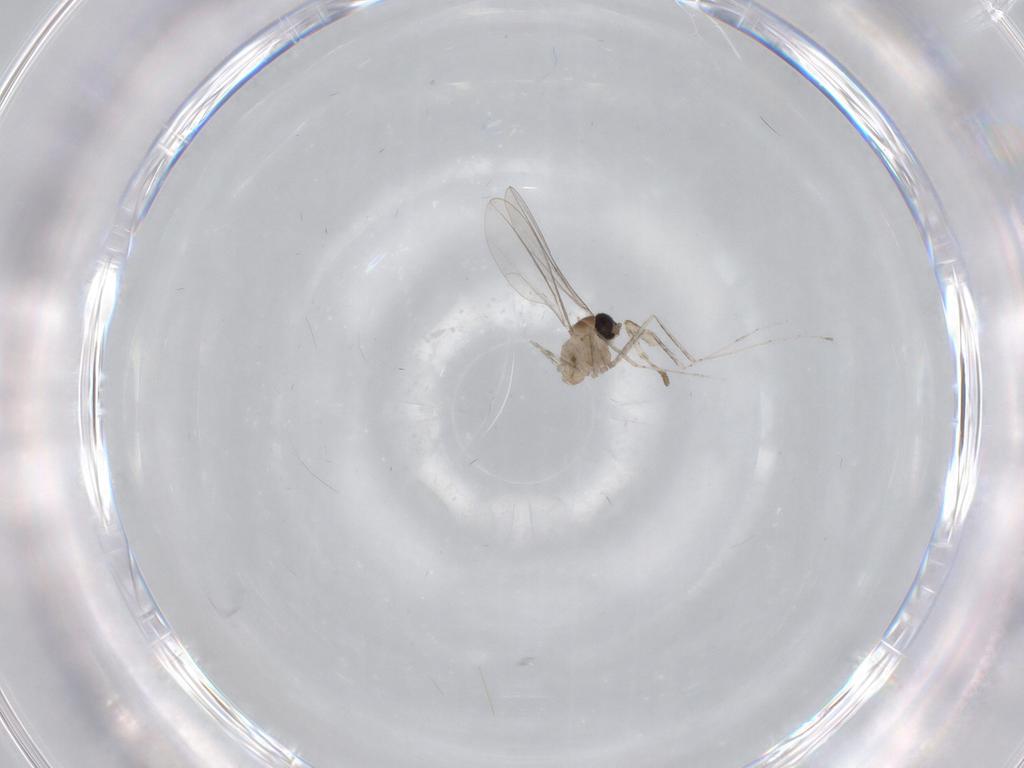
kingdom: Animalia
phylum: Arthropoda
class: Insecta
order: Diptera
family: Cecidomyiidae
